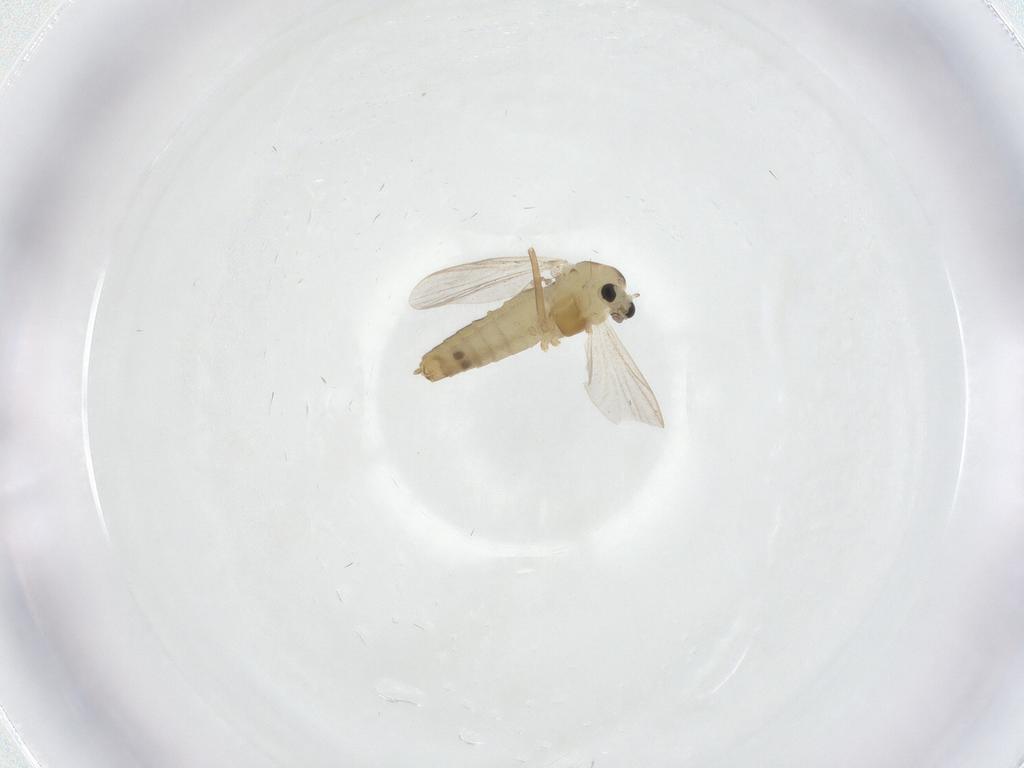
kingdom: Animalia
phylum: Arthropoda
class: Insecta
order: Diptera
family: Chironomidae
